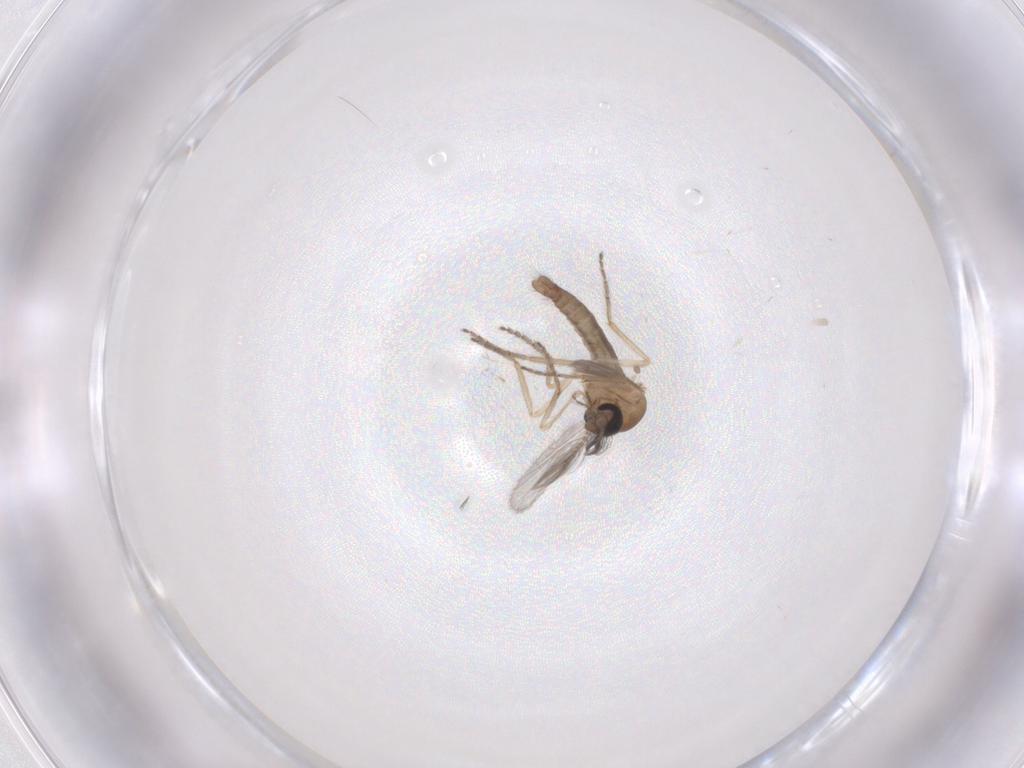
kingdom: Animalia
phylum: Arthropoda
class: Insecta
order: Diptera
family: Ceratopogonidae
